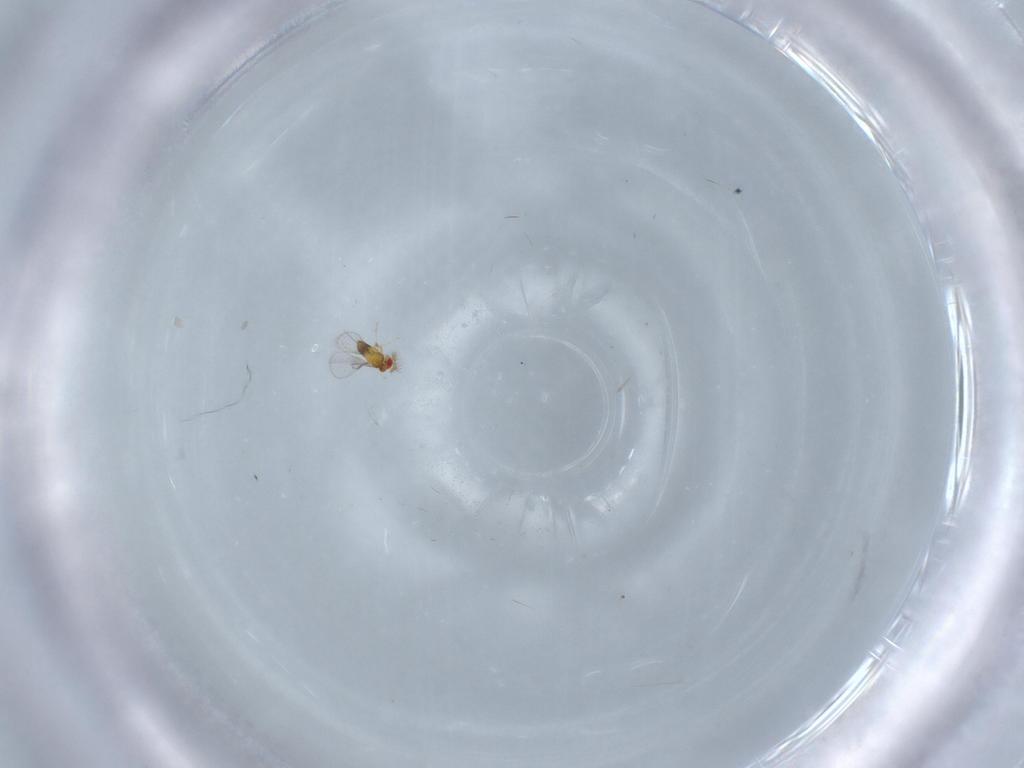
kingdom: Animalia
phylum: Arthropoda
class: Insecta
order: Hymenoptera
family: Trichogrammatidae
